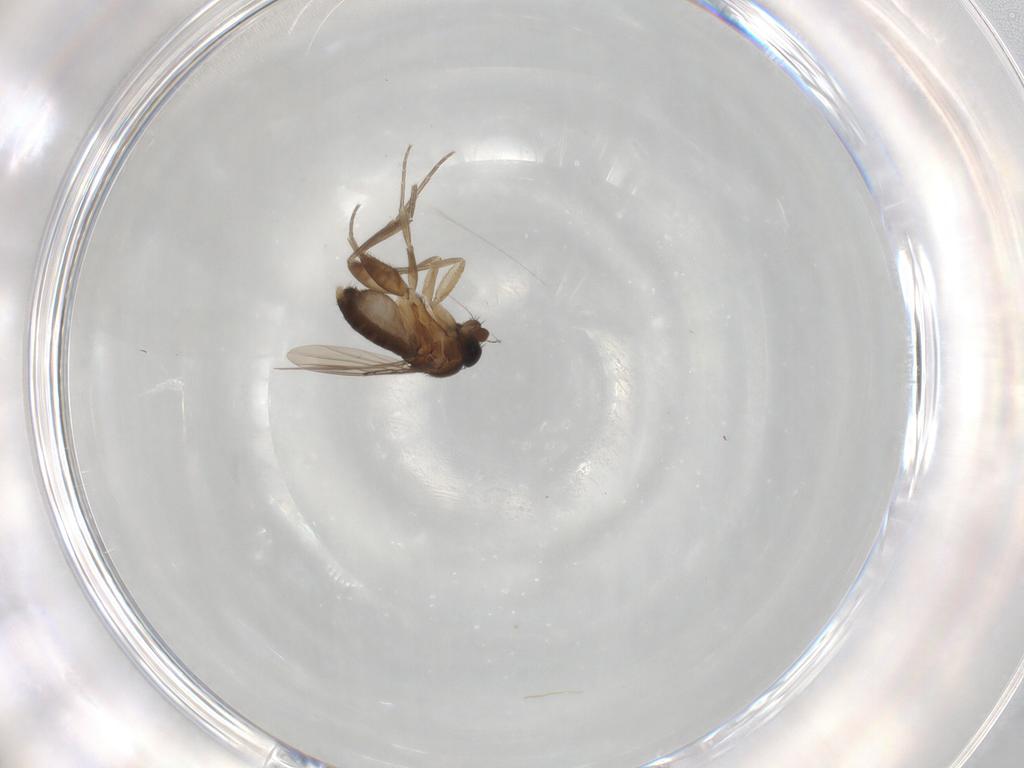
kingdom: Animalia
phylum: Arthropoda
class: Insecta
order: Diptera
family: Phoridae
